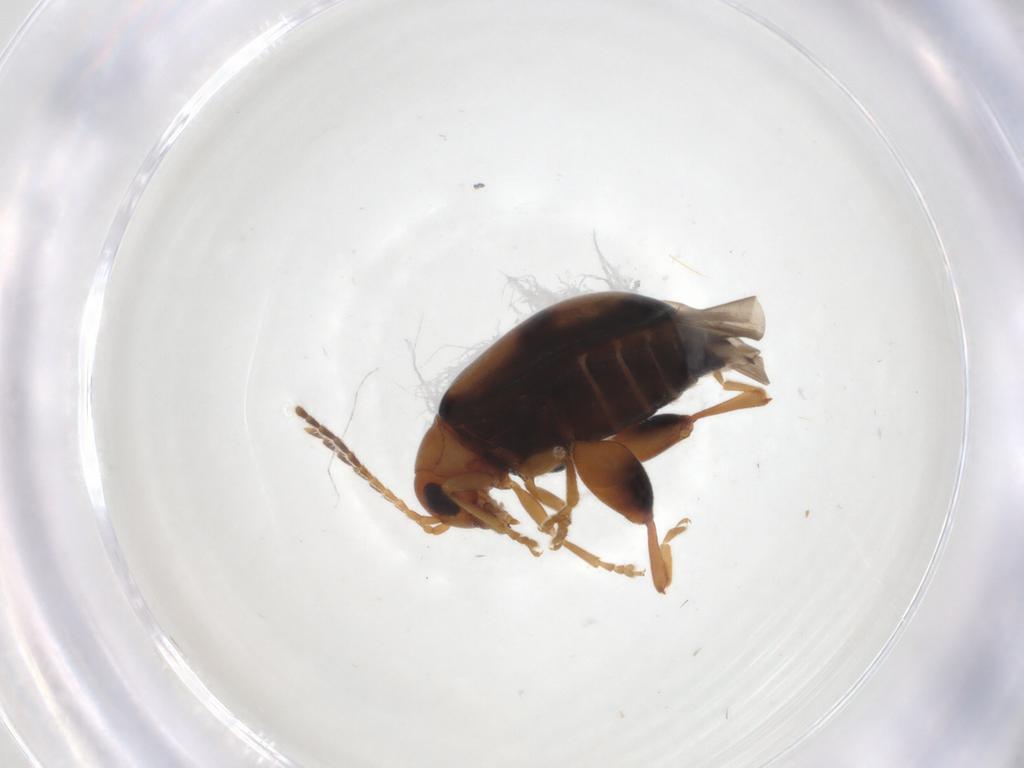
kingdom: Animalia
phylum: Arthropoda
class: Insecta
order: Coleoptera
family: Chrysomelidae
